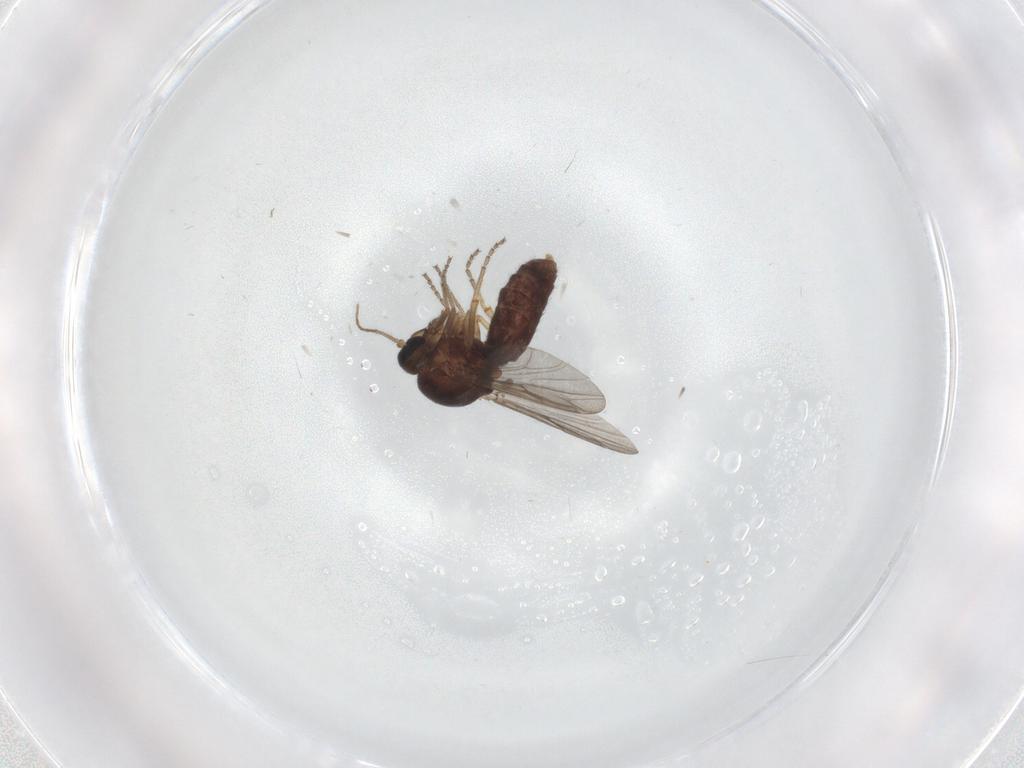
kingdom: Animalia
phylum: Arthropoda
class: Insecta
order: Diptera
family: Ceratopogonidae
